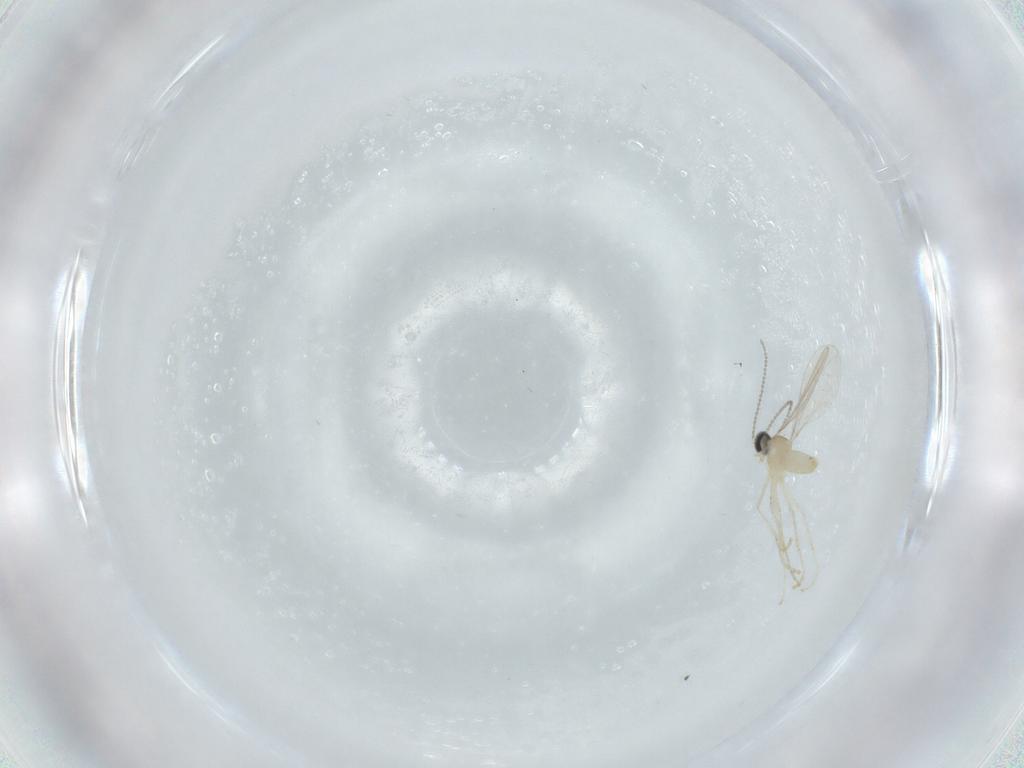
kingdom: Animalia
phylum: Arthropoda
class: Insecta
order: Diptera
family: Cecidomyiidae
